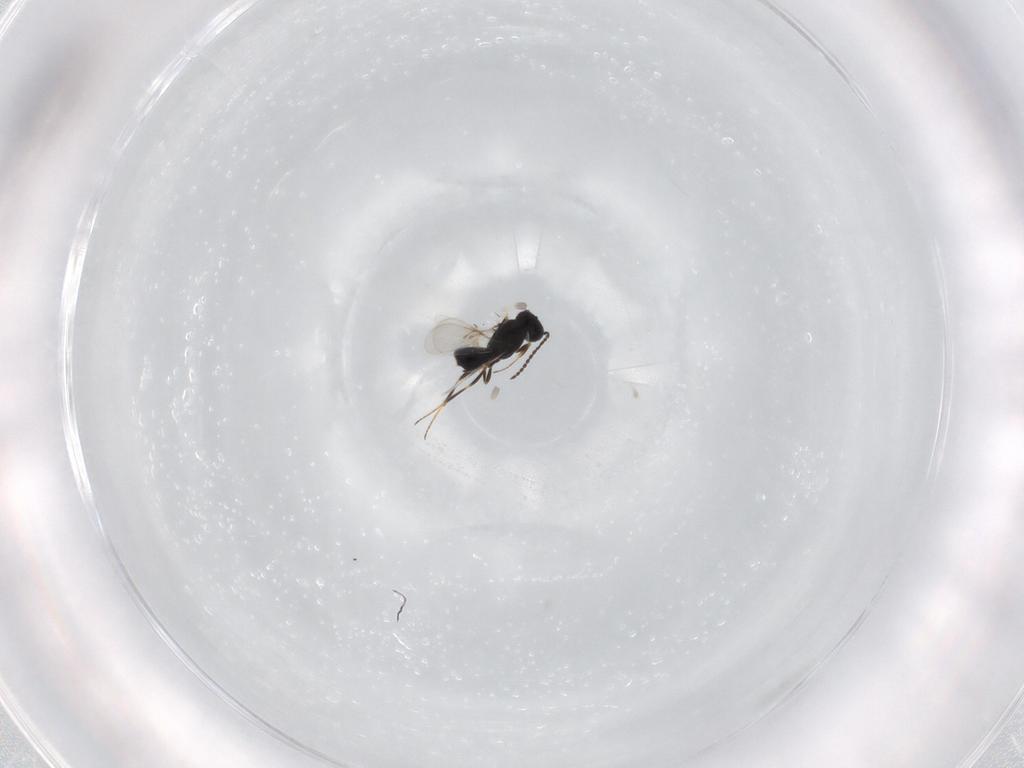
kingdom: Animalia
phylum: Arthropoda
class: Insecta
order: Hymenoptera
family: Scelionidae
